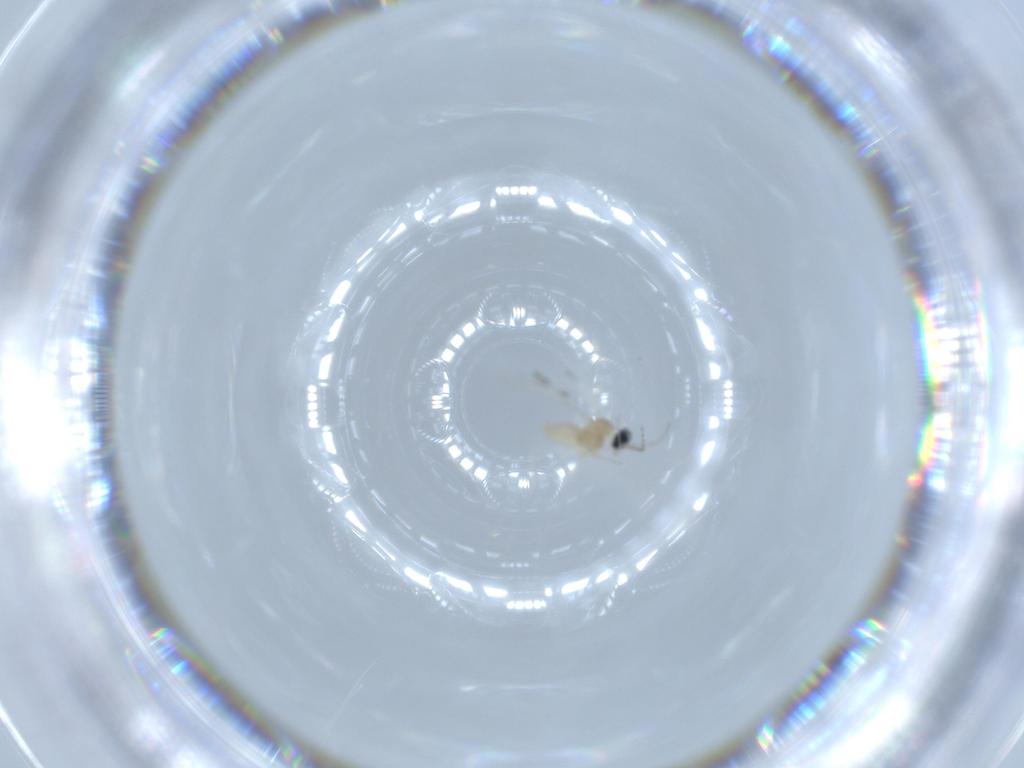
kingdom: Animalia
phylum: Arthropoda
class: Insecta
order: Diptera
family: Cecidomyiidae
